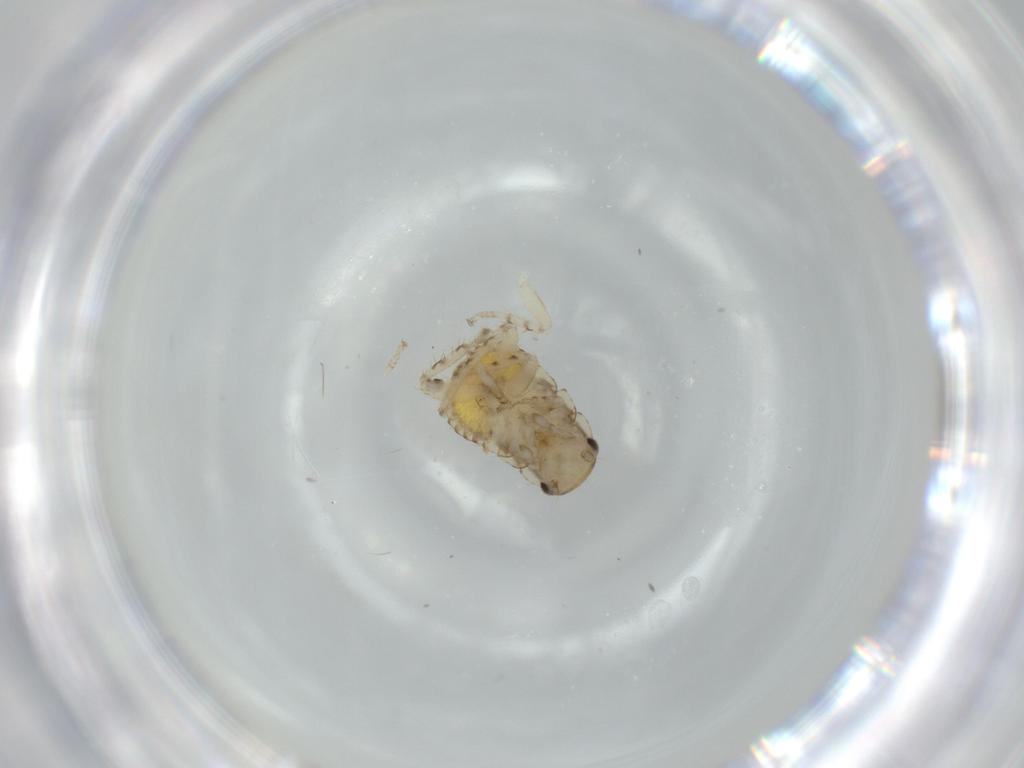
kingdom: Animalia
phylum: Arthropoda
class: Insecta
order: Blattodea
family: Ectobiidae
